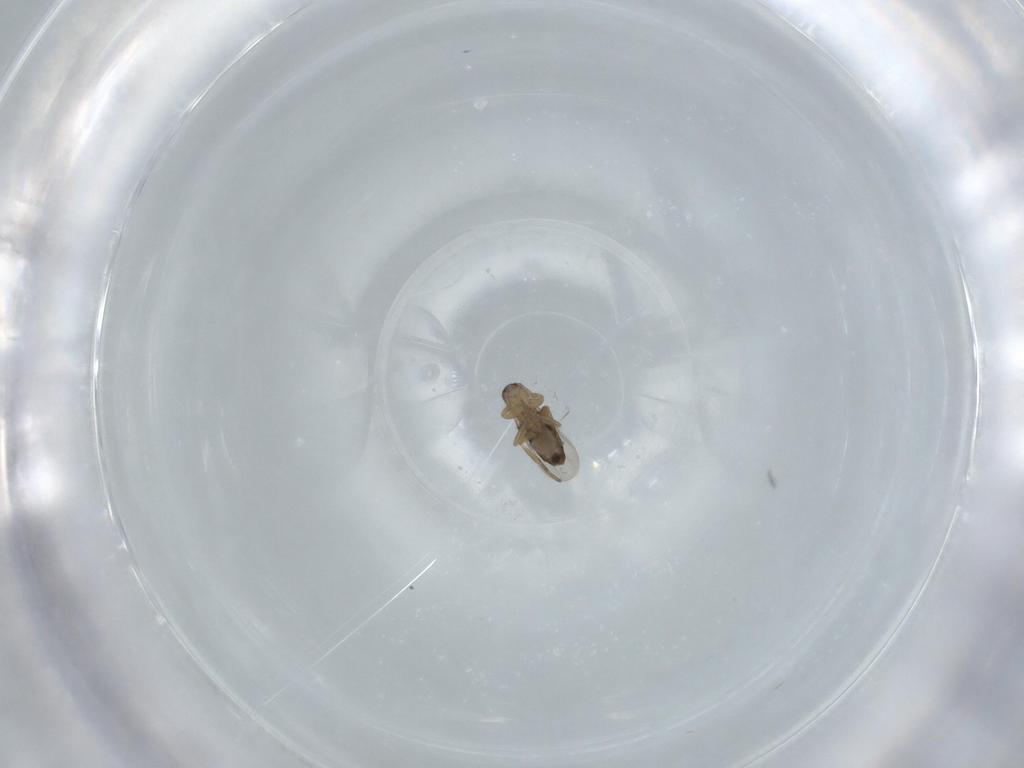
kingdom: Animalia
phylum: Arthropoda
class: Insecta
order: Diptera
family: Phoridae
